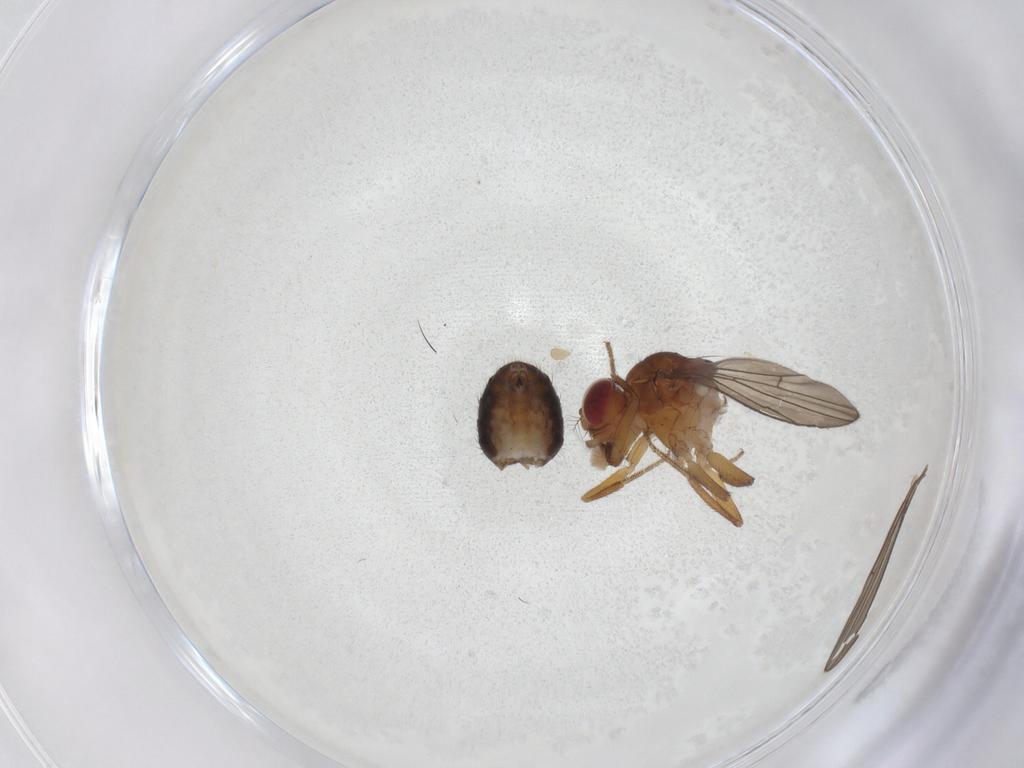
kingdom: Animalia
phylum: Arthropoda
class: Insecta
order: Diptera
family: Drosophilidae
